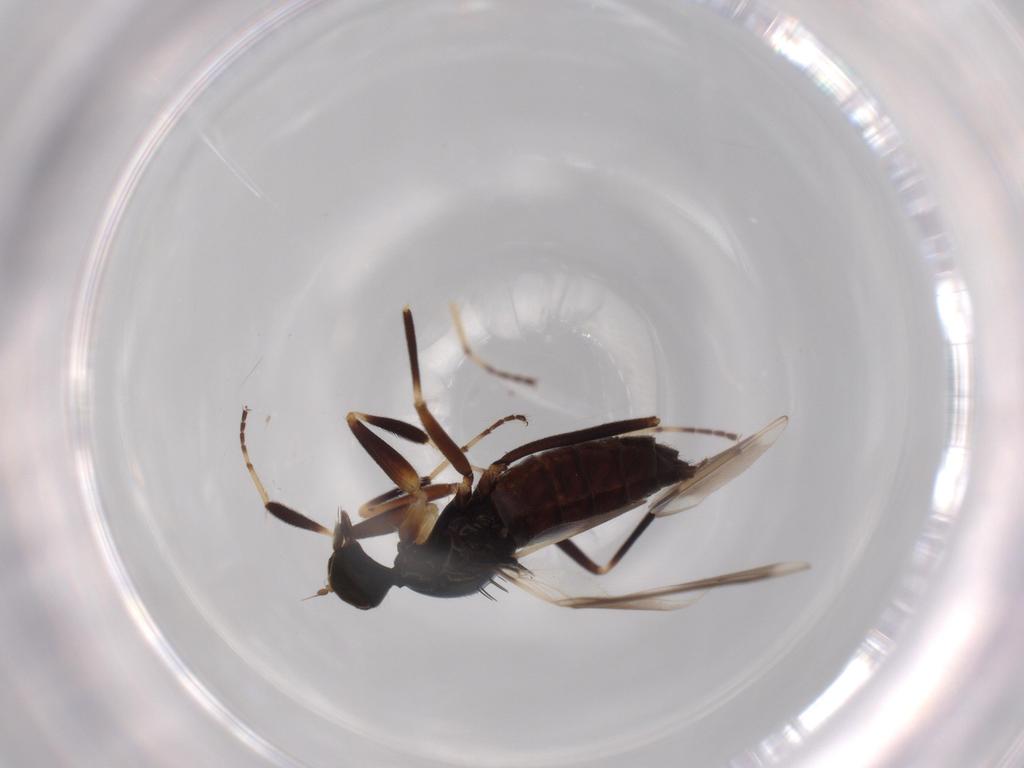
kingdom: Animalia
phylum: Arthropoda
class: Insecta
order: Diptera
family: Hybotidae
